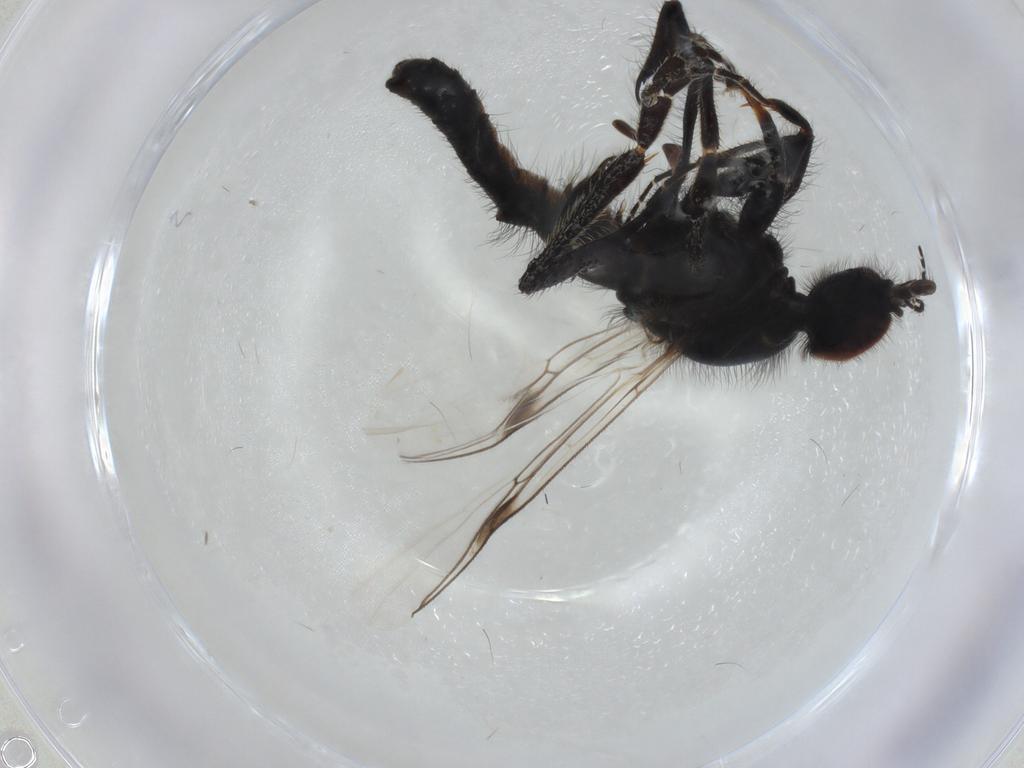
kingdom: Animalia
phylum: Arthropoda
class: Insecta
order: Diptera
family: Bibionidae
